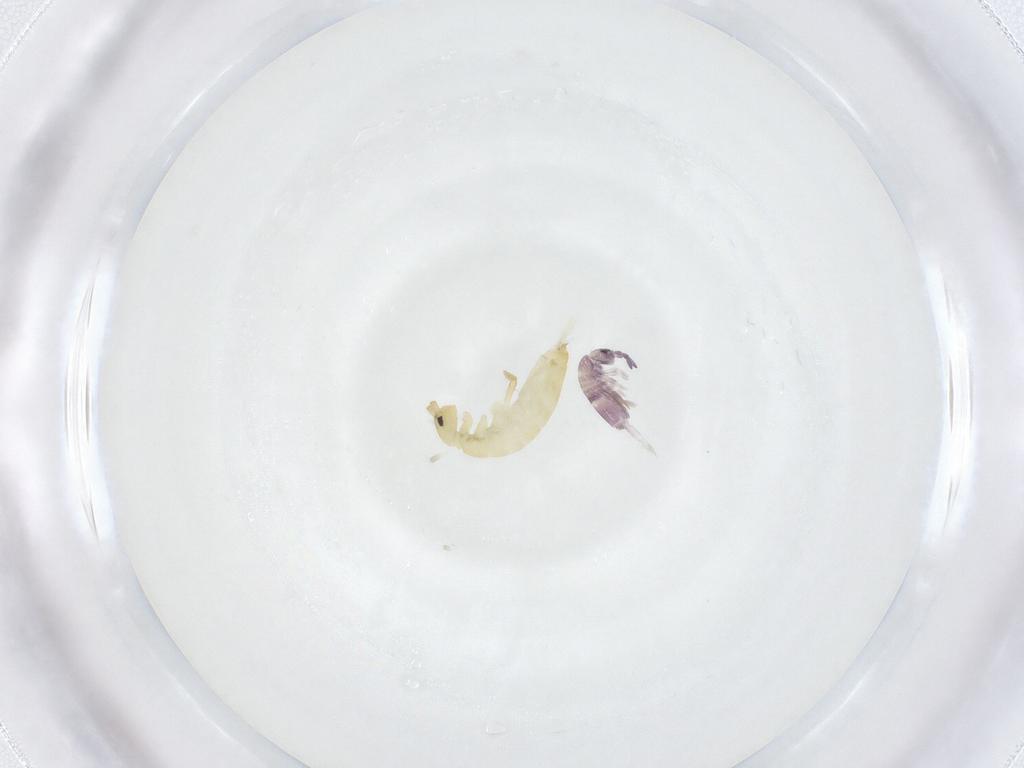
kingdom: Animalia
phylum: Arthropoda
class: Collembola
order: Entomobryomorpha
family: Entomobryidae
